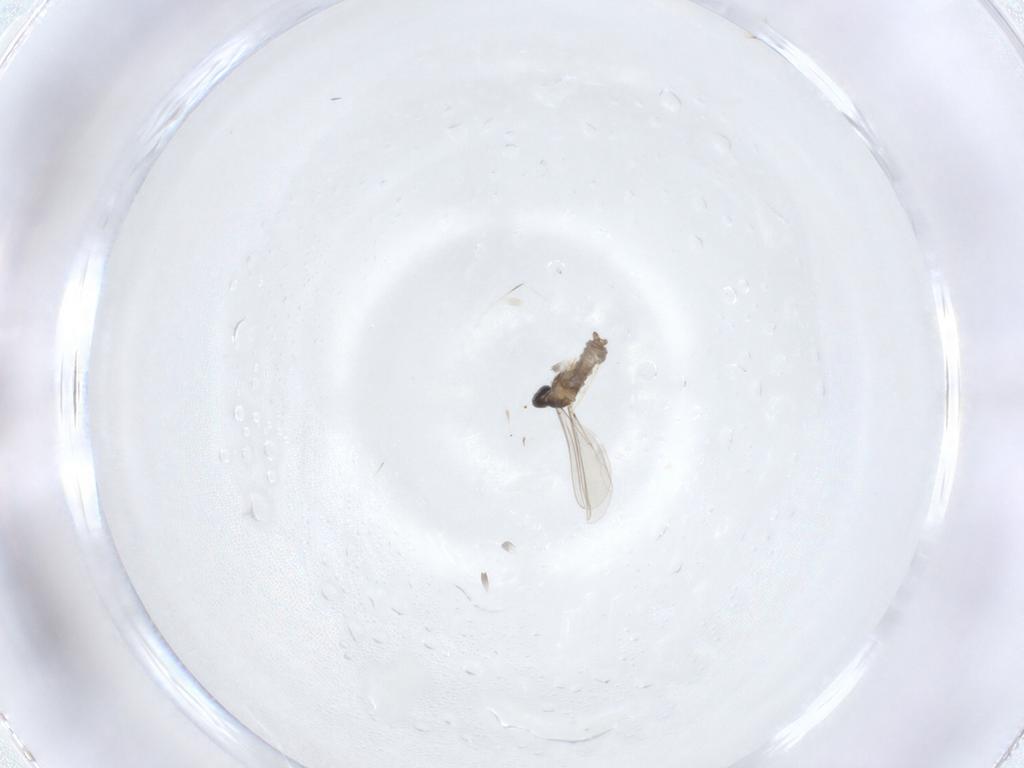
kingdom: Animalia
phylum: Arthropoda
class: Insecta
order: Diptera
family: Cecidomyiidae
